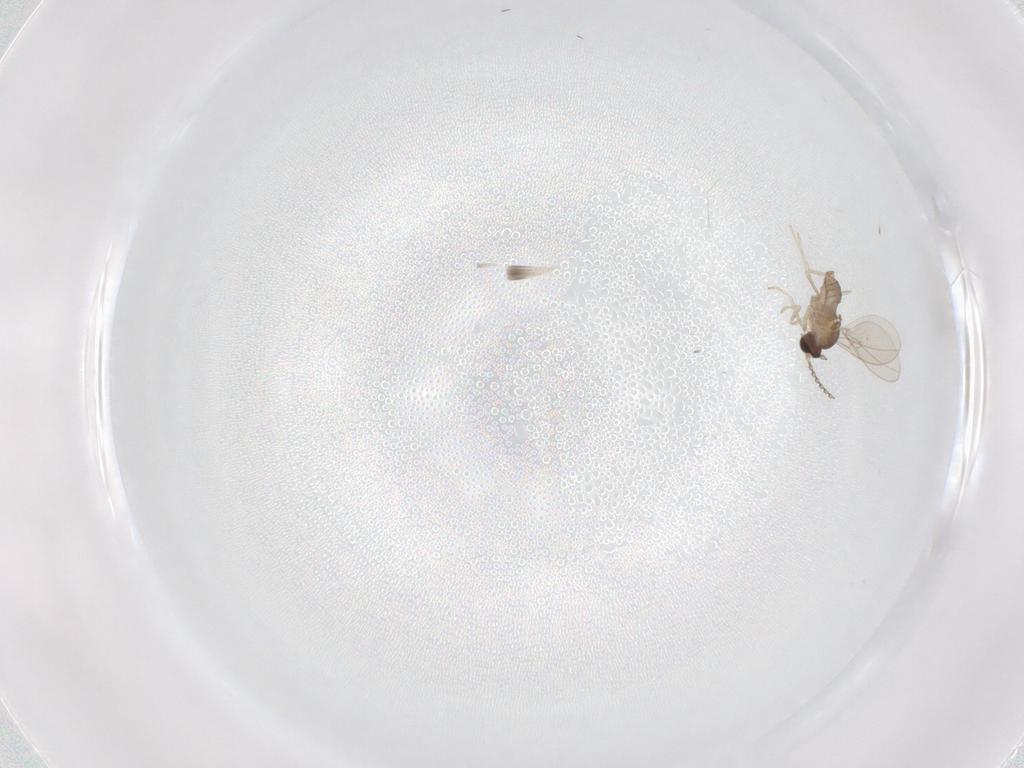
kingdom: Animalia
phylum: Arthropoda
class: Insecta
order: Diptera
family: Cecidomyiidae
